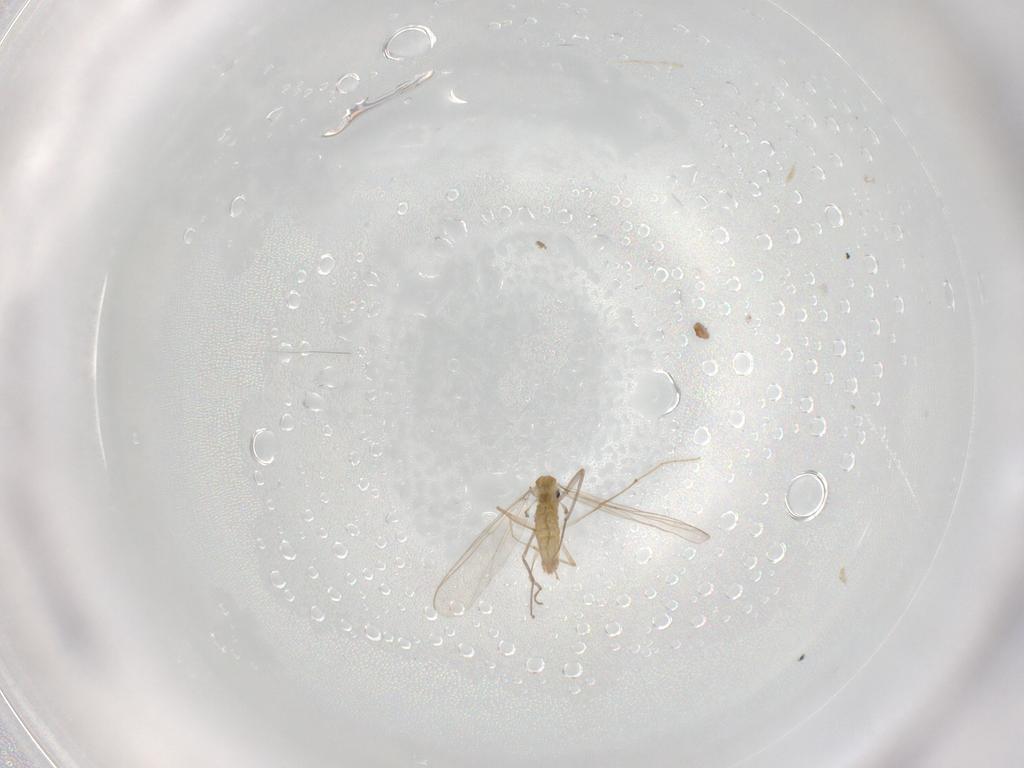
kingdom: Animalia
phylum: Arthropoda
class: Insecta
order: Diptera
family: Chironomidae
